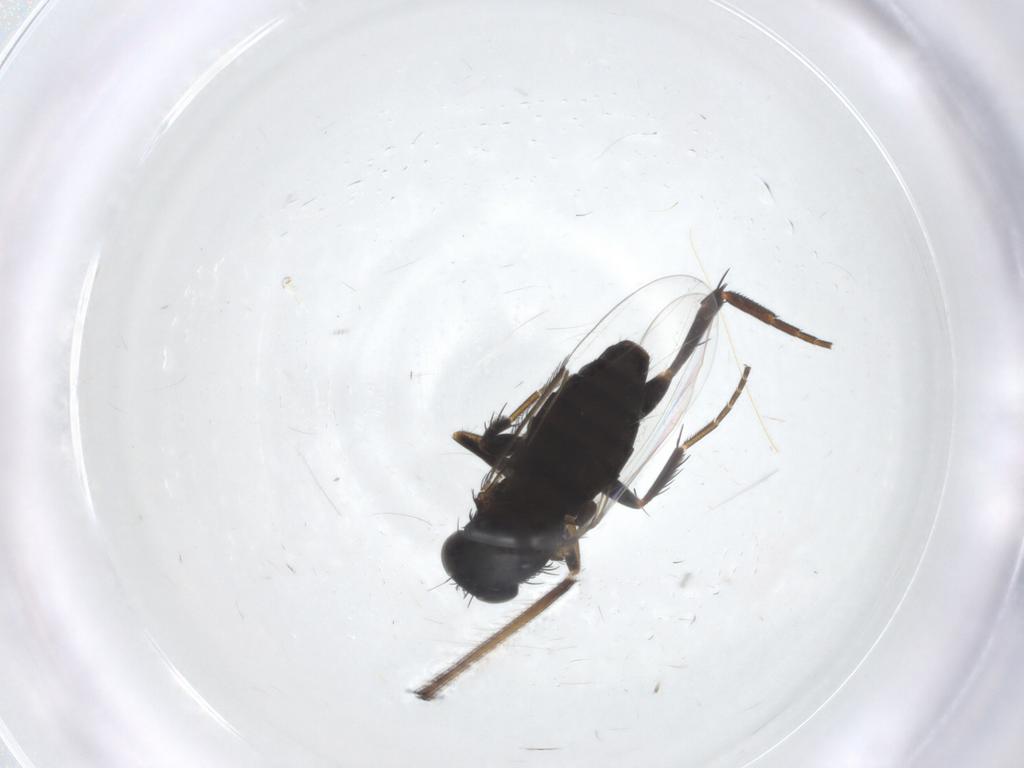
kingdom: Animalia
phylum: Arthropoda
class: Insecta
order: Diptera
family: Phoridae
